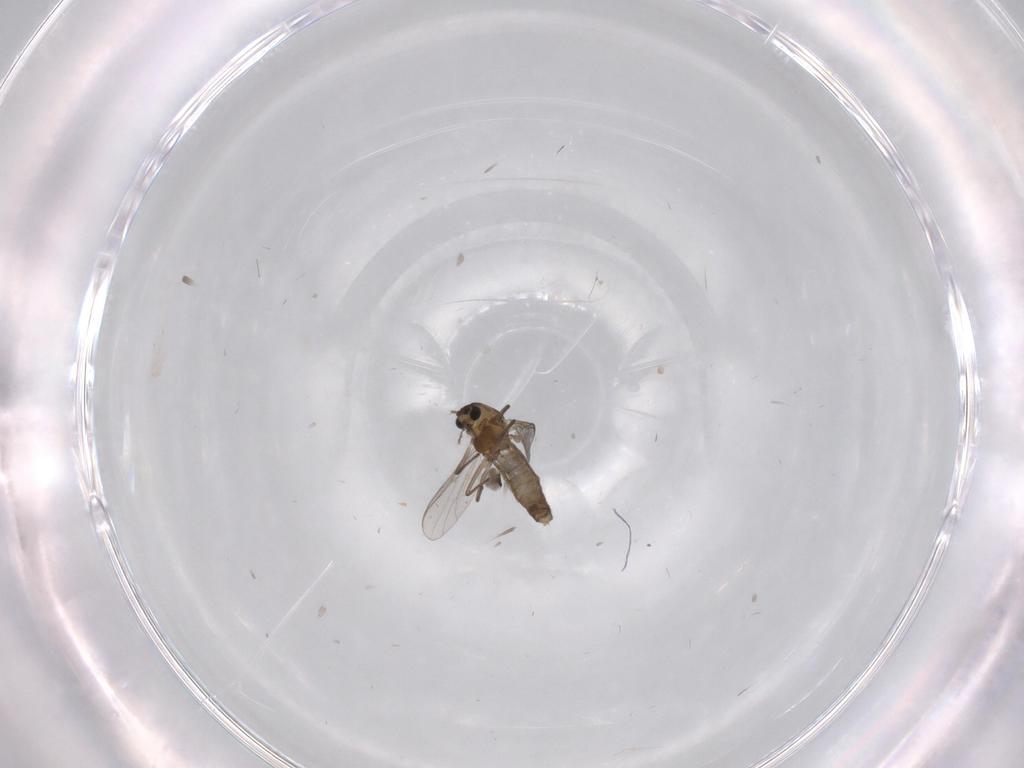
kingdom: Animalia
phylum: Arthropoda
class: Insecta
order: Diptera
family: Chironomidae
